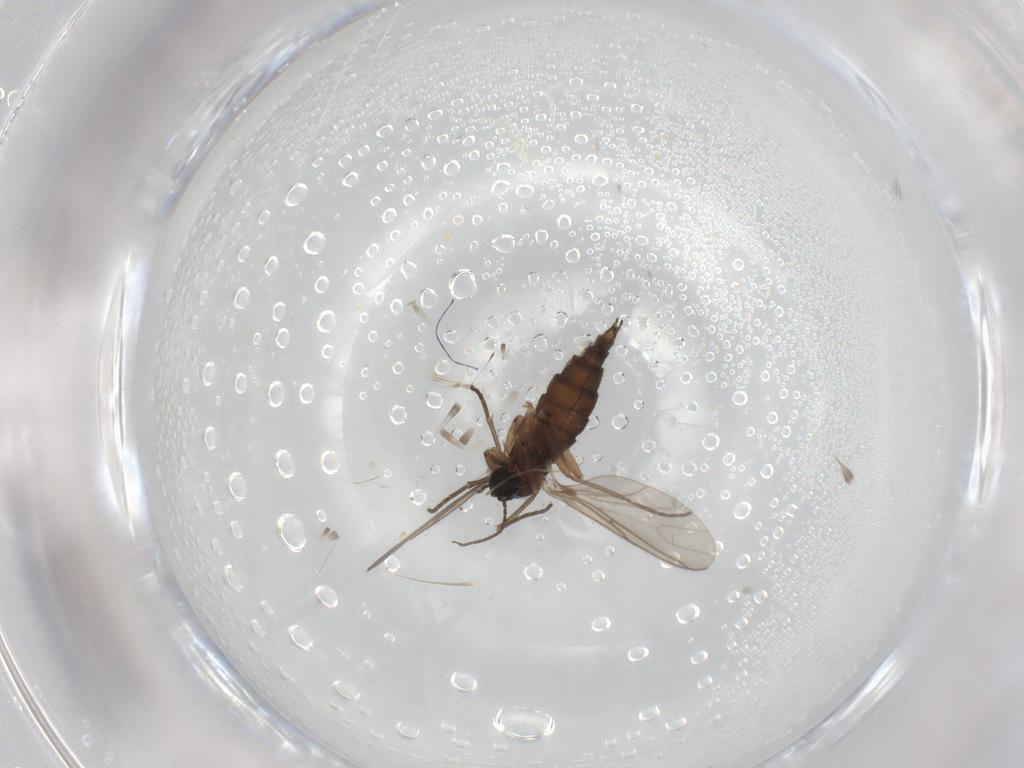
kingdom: Animalia
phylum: Arthropoda
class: Insecta
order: Diptera
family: Sciaridae
